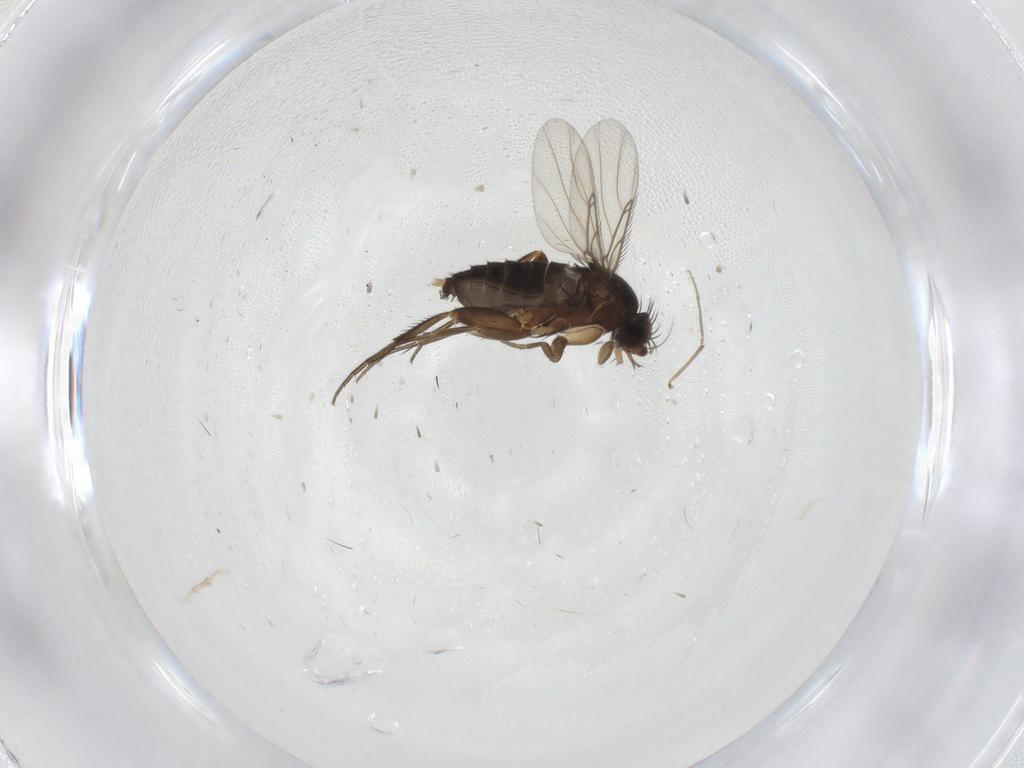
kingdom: Animalia
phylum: Arthropoda
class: Insecta
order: Diptera
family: Phoridae
